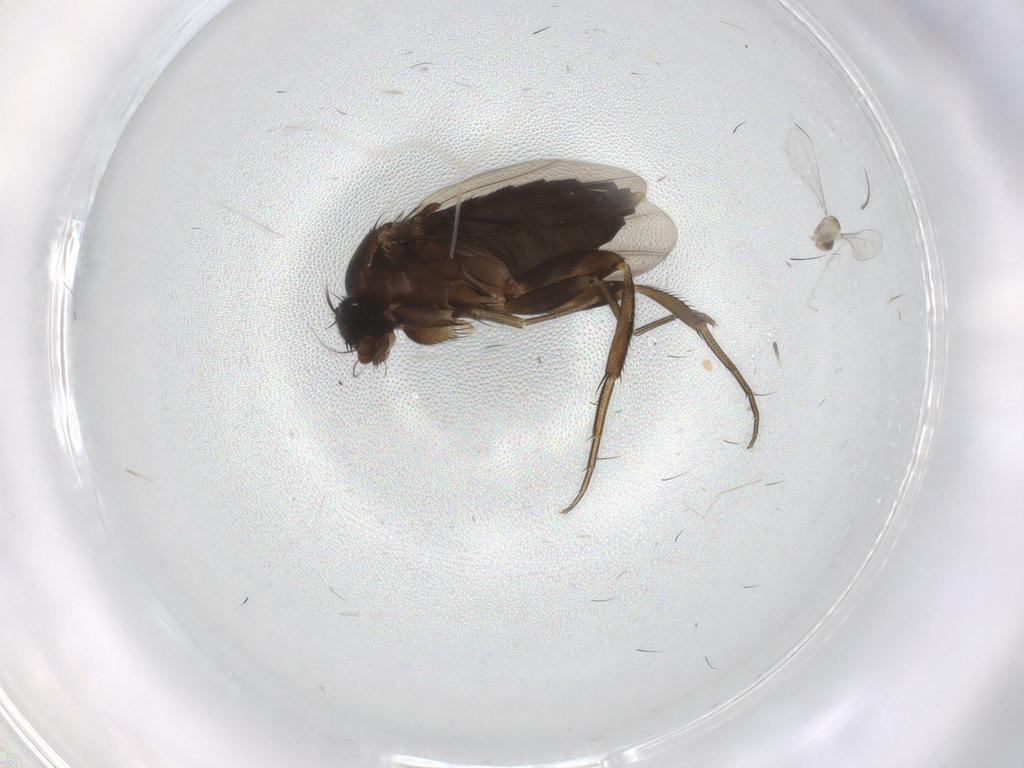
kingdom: Animalia
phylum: Arthropoda
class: Insecta
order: Diptera
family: Phoridae
